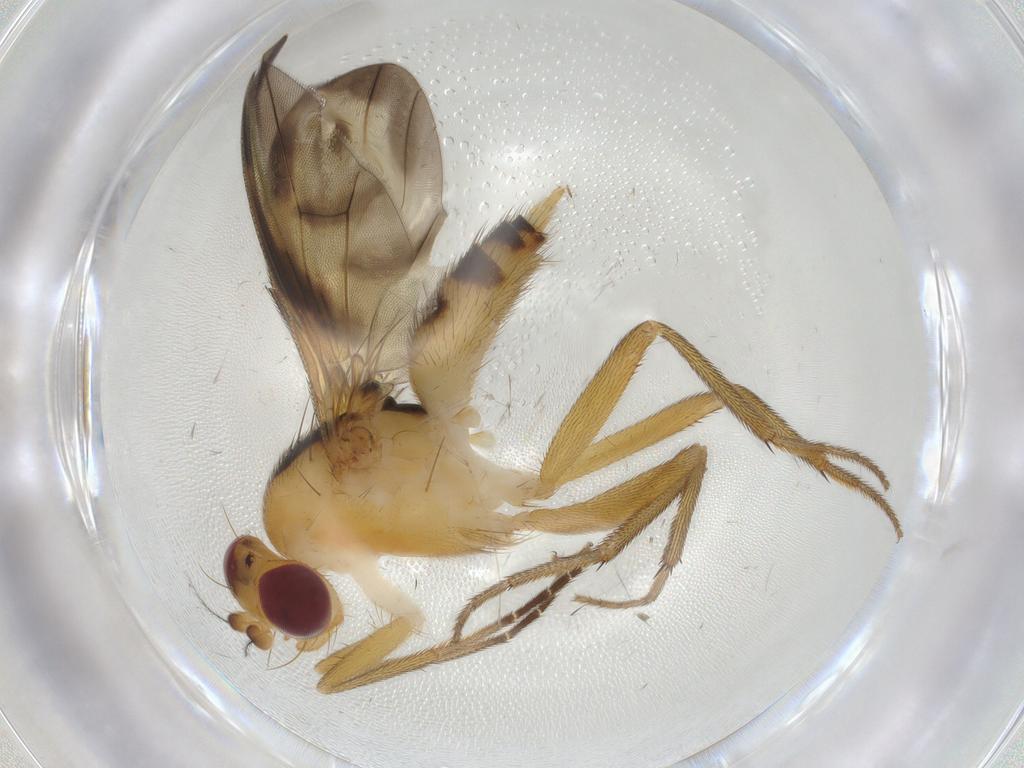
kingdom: Animalia
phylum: Arthropoda
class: Insecta
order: Diptera
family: Clusiidae
